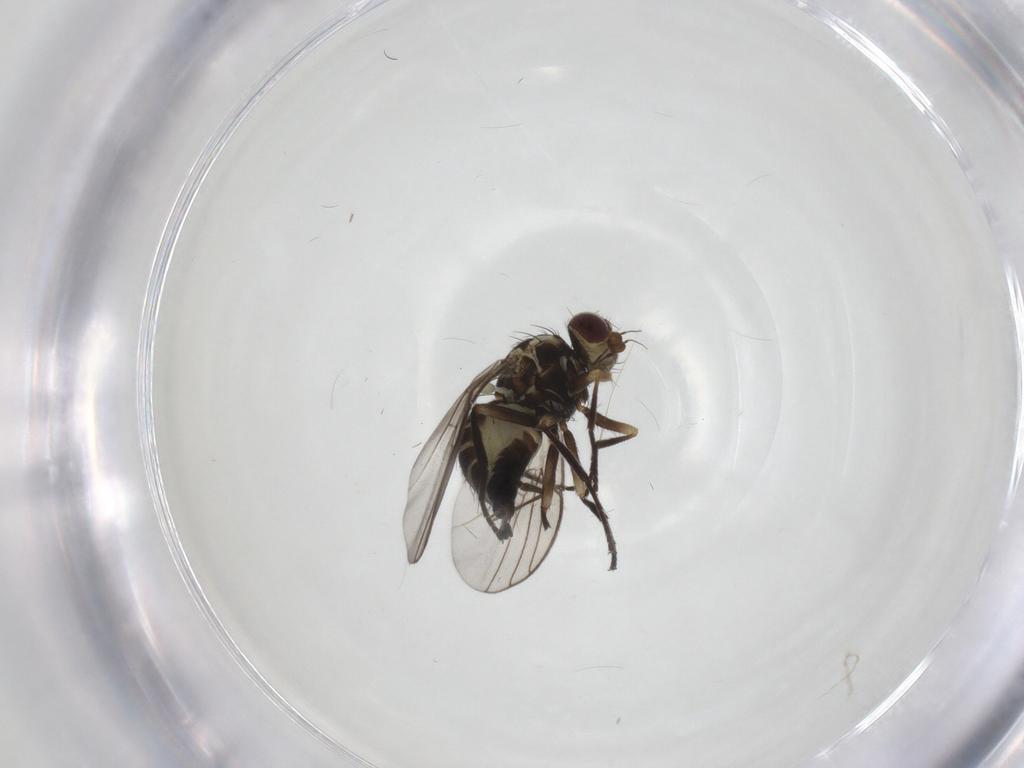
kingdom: Animalia
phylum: Arthropoda
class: Insecta
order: Diptera
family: Agromyzidae
